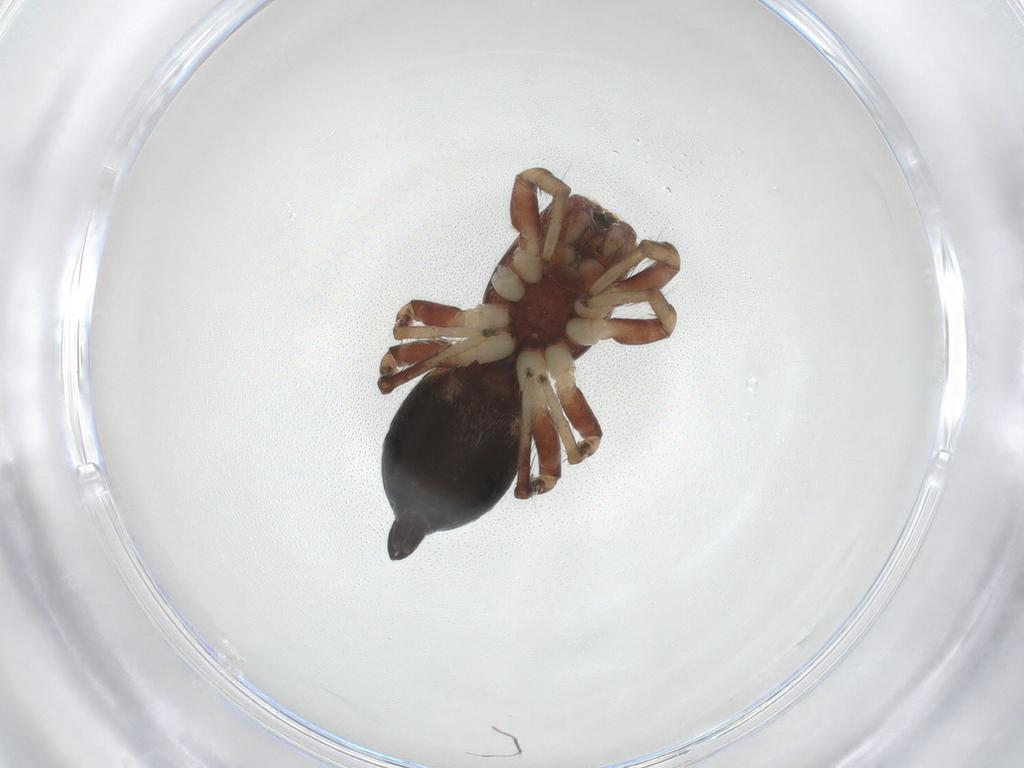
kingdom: Animalia
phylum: Arthropoda
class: Arachnida
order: Araneae
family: Salticidae
